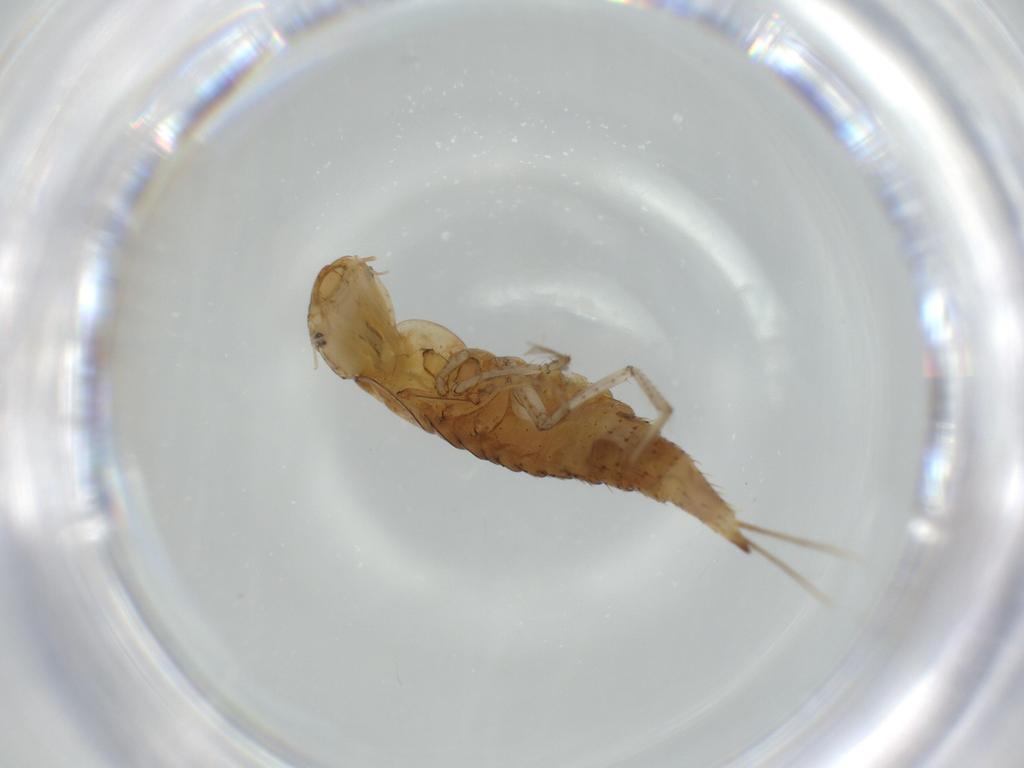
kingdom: Animalia
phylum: Arthropoda
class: Insecta
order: Coleoptera
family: Dytiscidae
